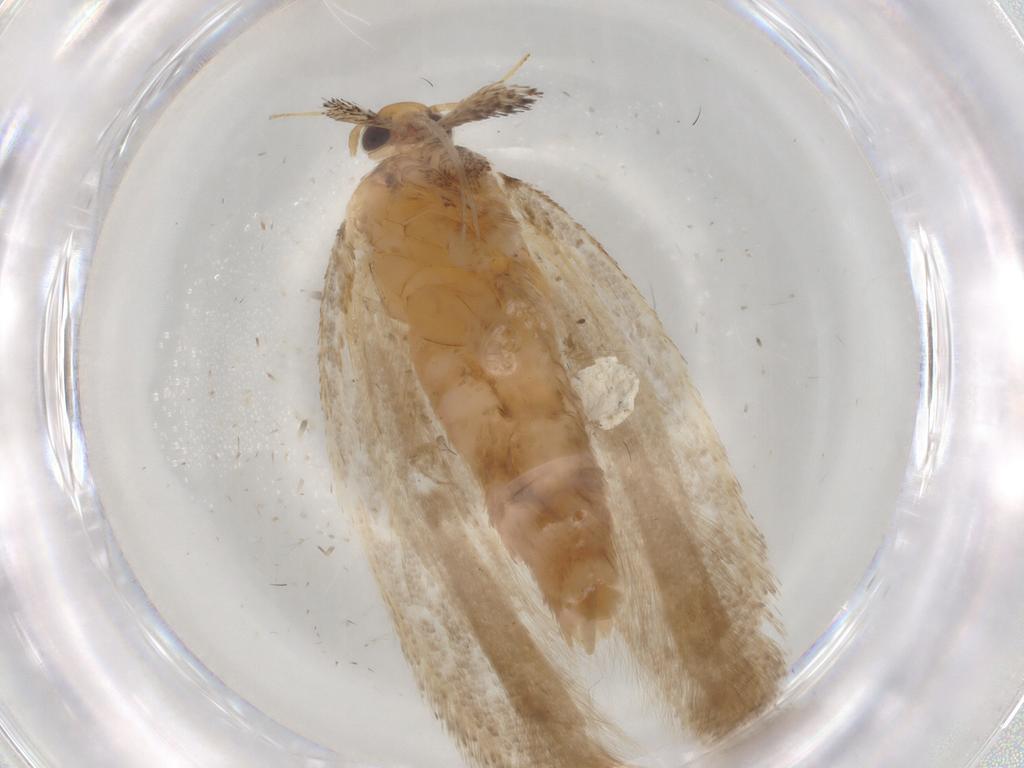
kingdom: Animalia
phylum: Arthropoda
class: Insecta
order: Lepidoptera
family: Gelechiidae
